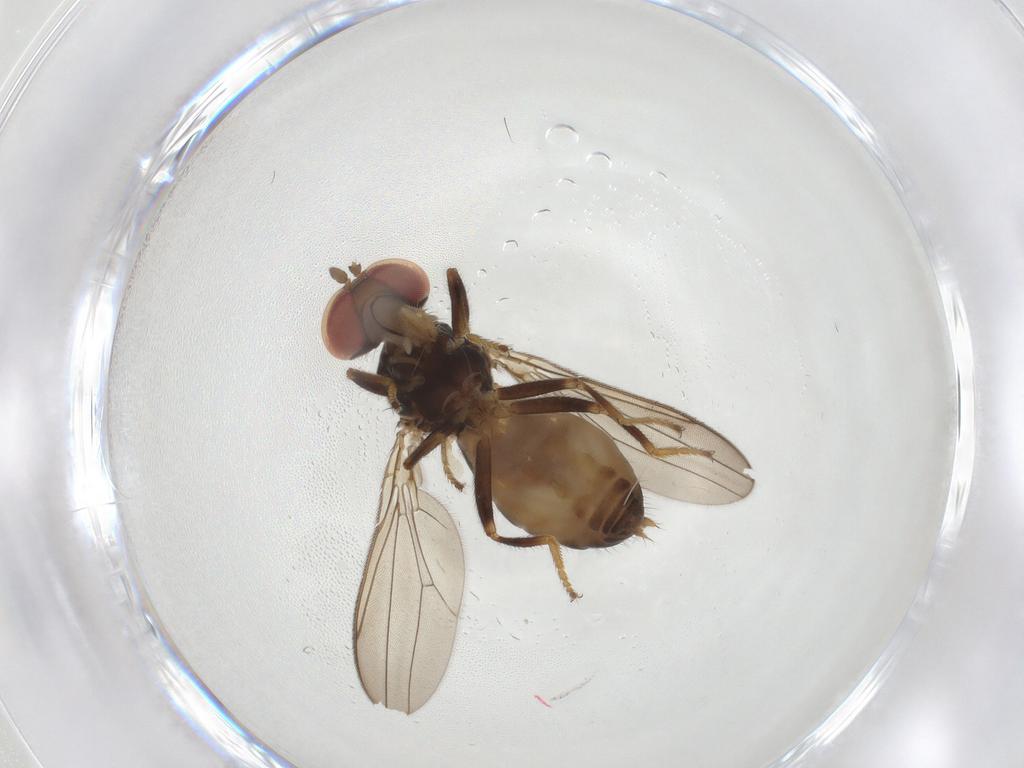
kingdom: Animalia
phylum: Arthropoda
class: Insecta
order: Diptera
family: Aulacigastridae
